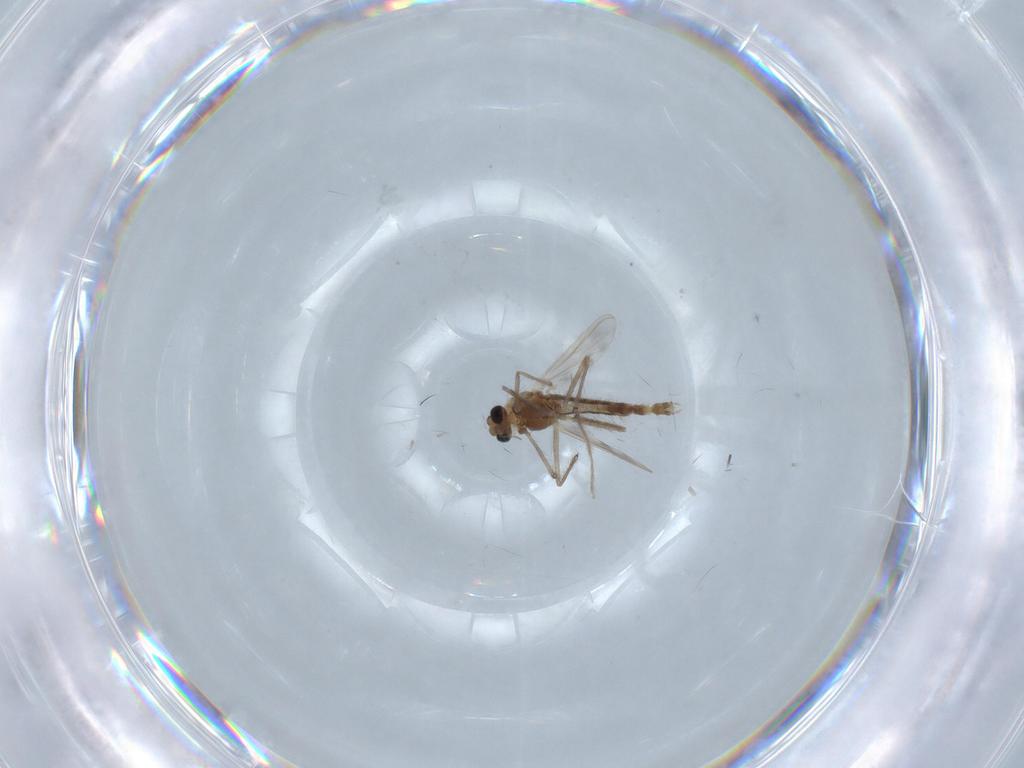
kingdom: Animalia
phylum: Arthropoda
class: Insecta
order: Diptera
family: Chironomidae
